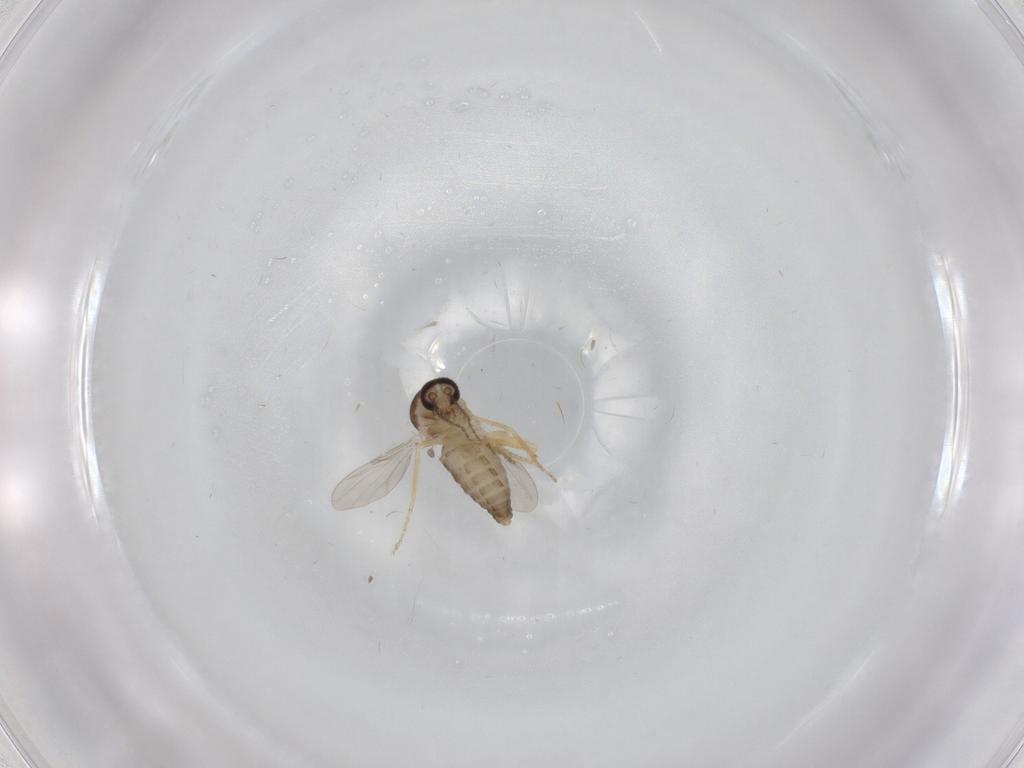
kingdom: Animalia
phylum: Arthropoda
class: Insecta
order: Diptera
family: Ceratopogonidae
